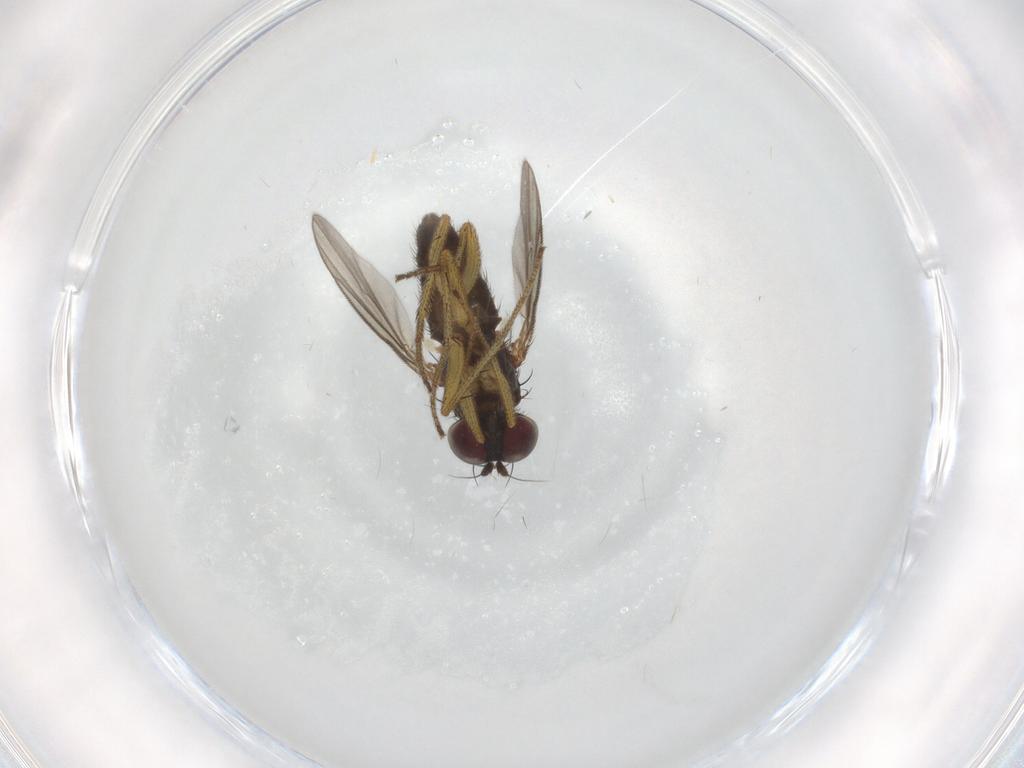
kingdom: Animalia
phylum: Arthropoda
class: Insecta
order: Diptera
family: Dolichopodidae
